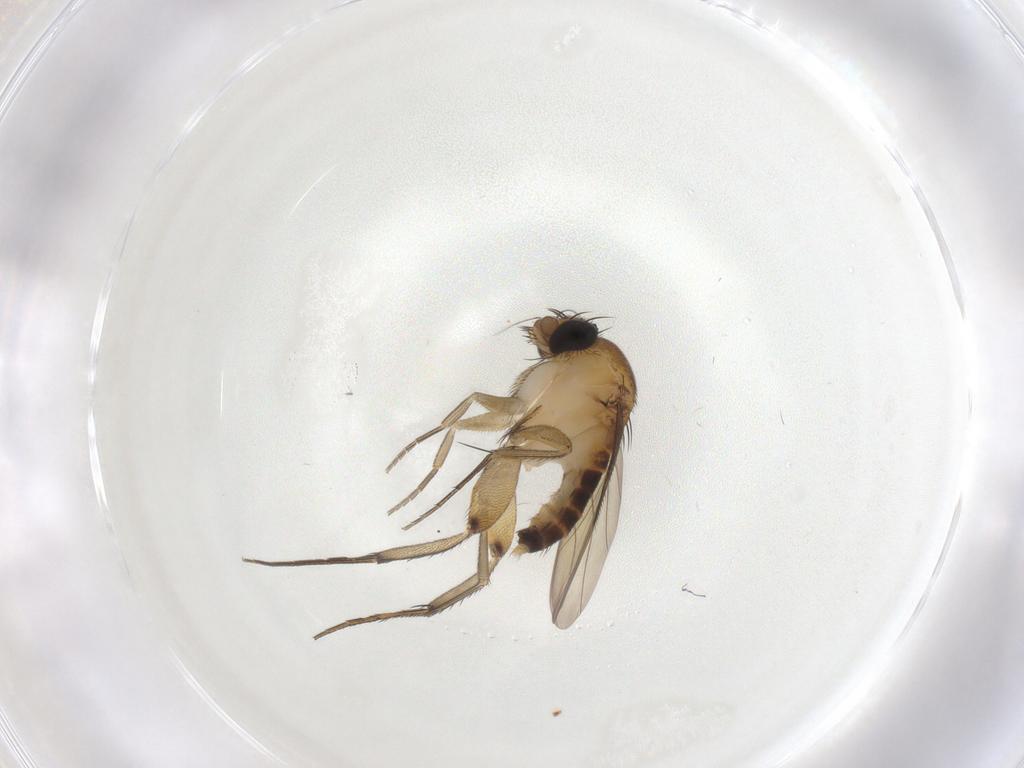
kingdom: Animalia
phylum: Arthropoda
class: Insecta
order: Diptera
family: Phoridae
